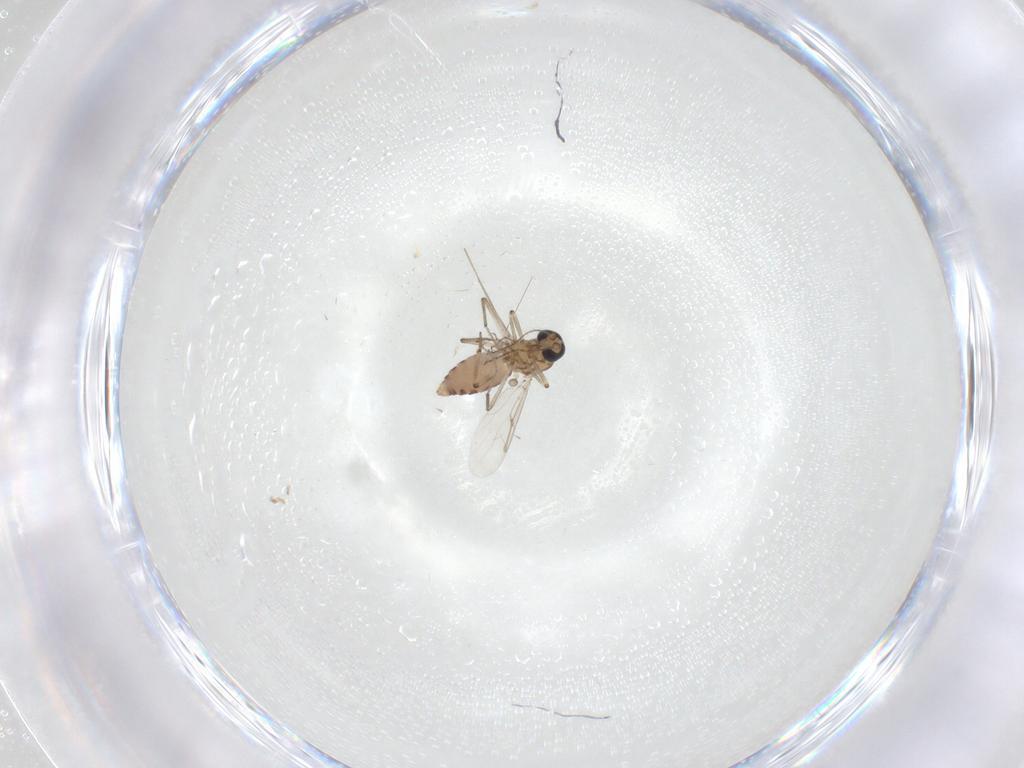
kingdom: Animalia
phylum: Arthropoda
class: Insecta
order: Diptera
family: Ceratopogonidae
